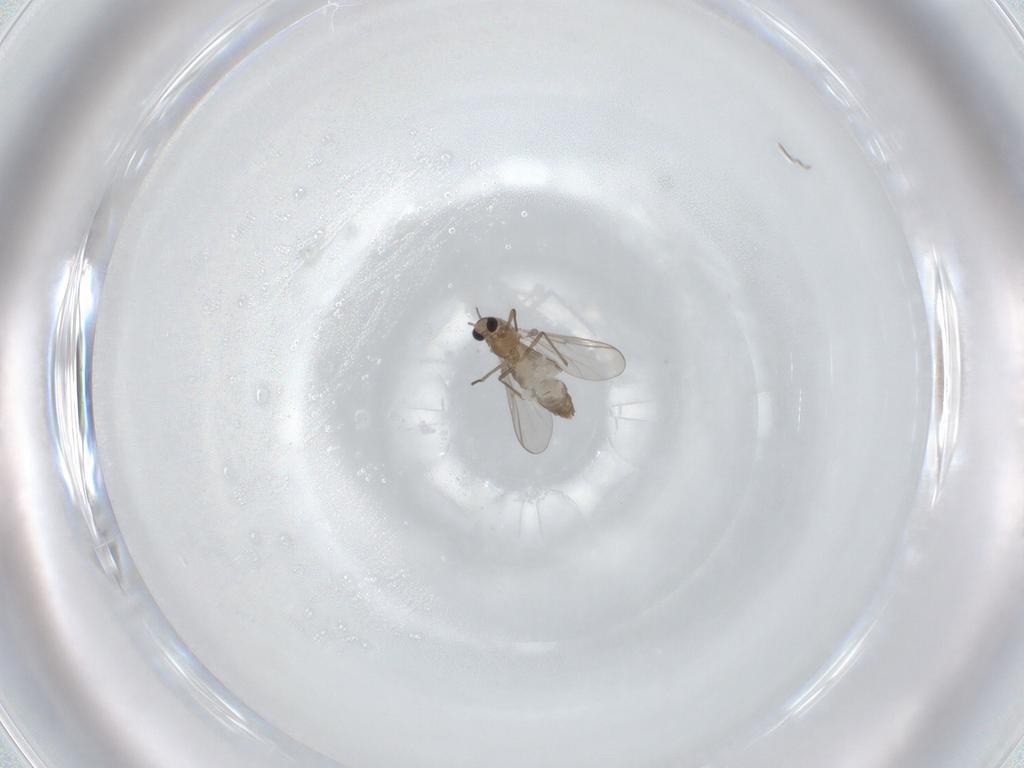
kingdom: Animalia
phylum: Arthropoda
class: Insecta
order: Diptera
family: Chironomidae
